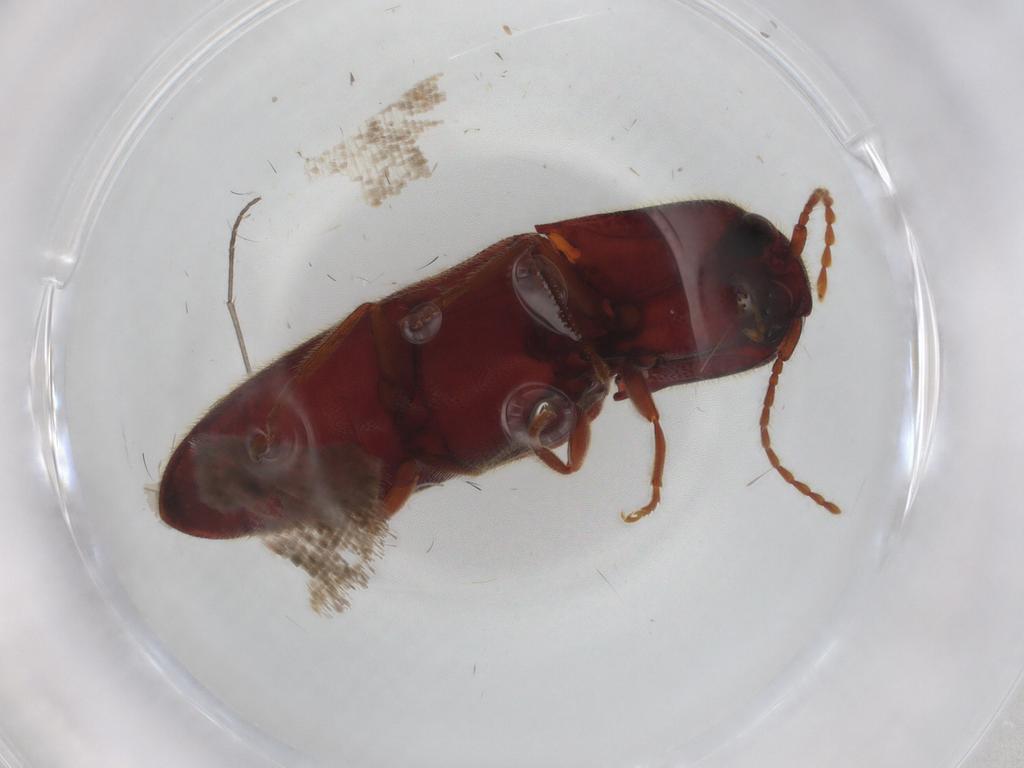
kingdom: Animalia
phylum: Arthropoda
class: Insecta
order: Coleoptera
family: Elateridae
